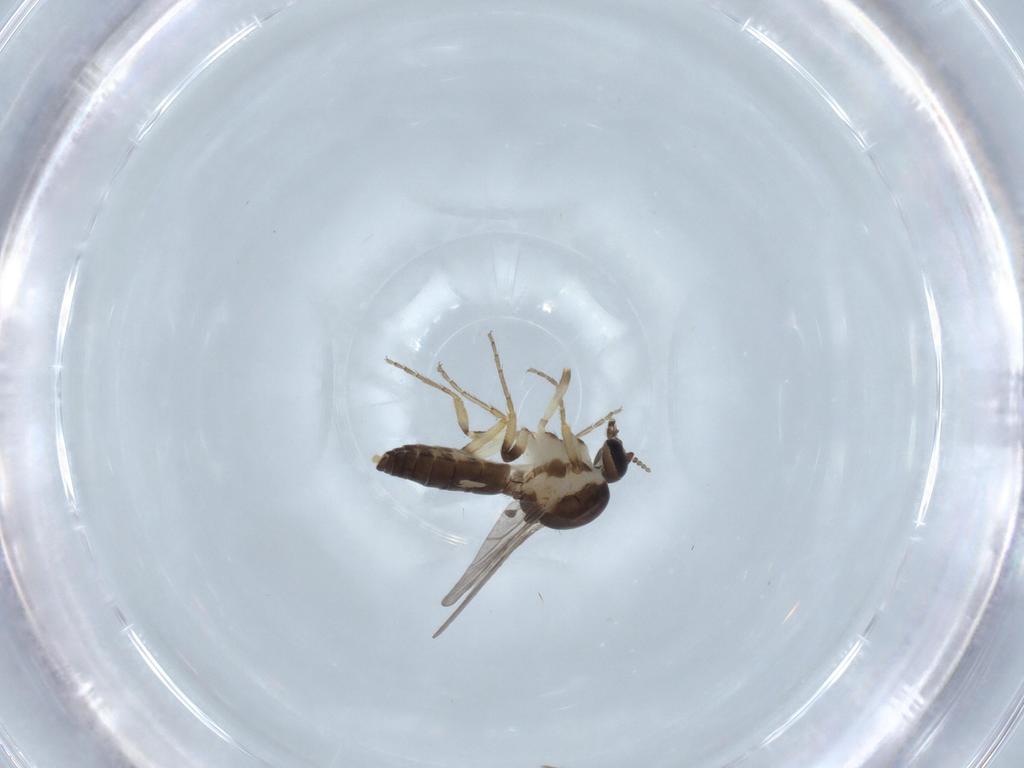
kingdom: Animalia
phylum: Arthropoda
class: Insecta
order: Diptera
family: Ceratopogonidae
